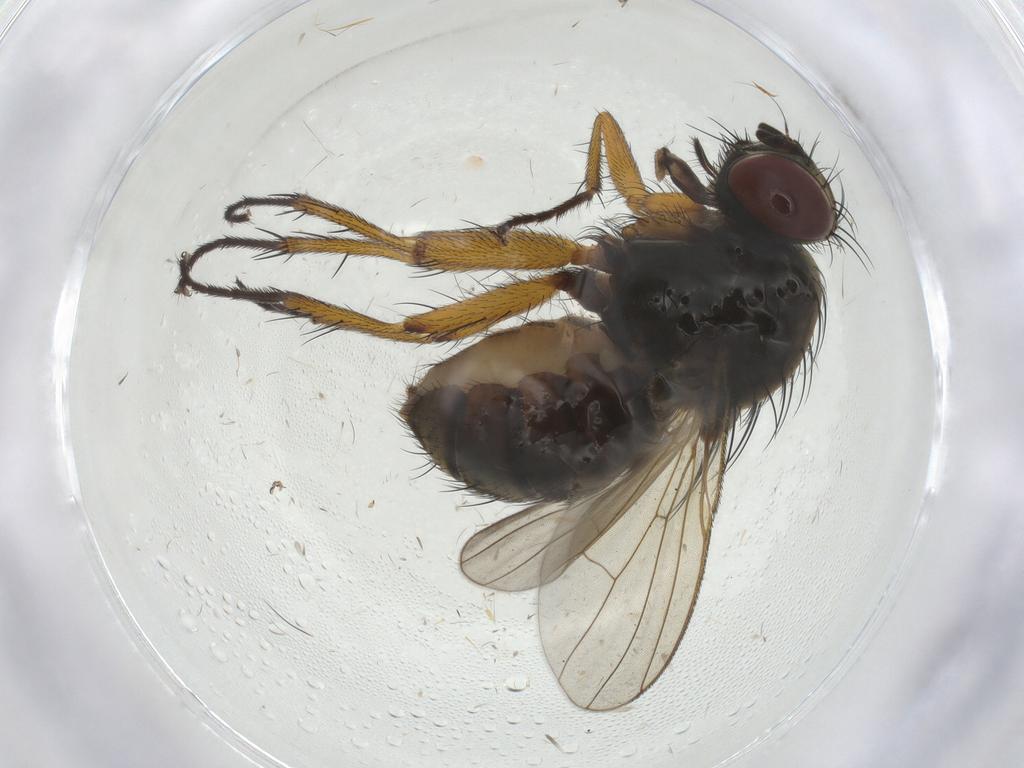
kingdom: Animalia
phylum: Arthropoda
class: Insecta
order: Diptera
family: Muscidae
